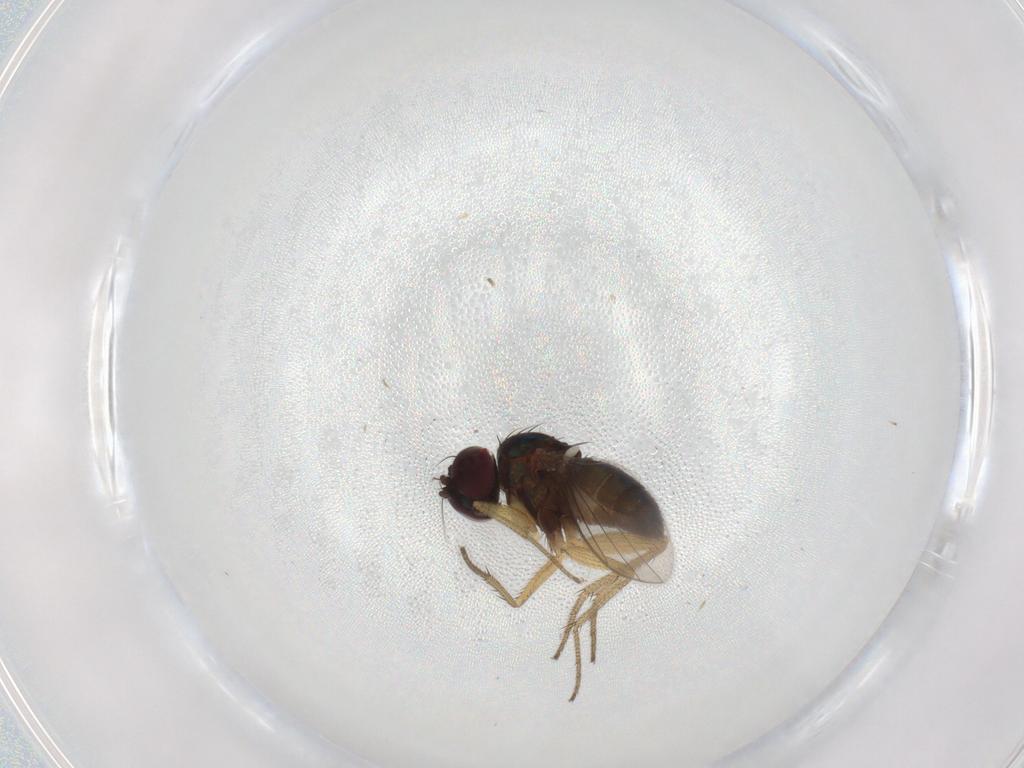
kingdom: Animalia
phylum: Arthropoda
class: Insecta
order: Diptera
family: Dolichopodidae
